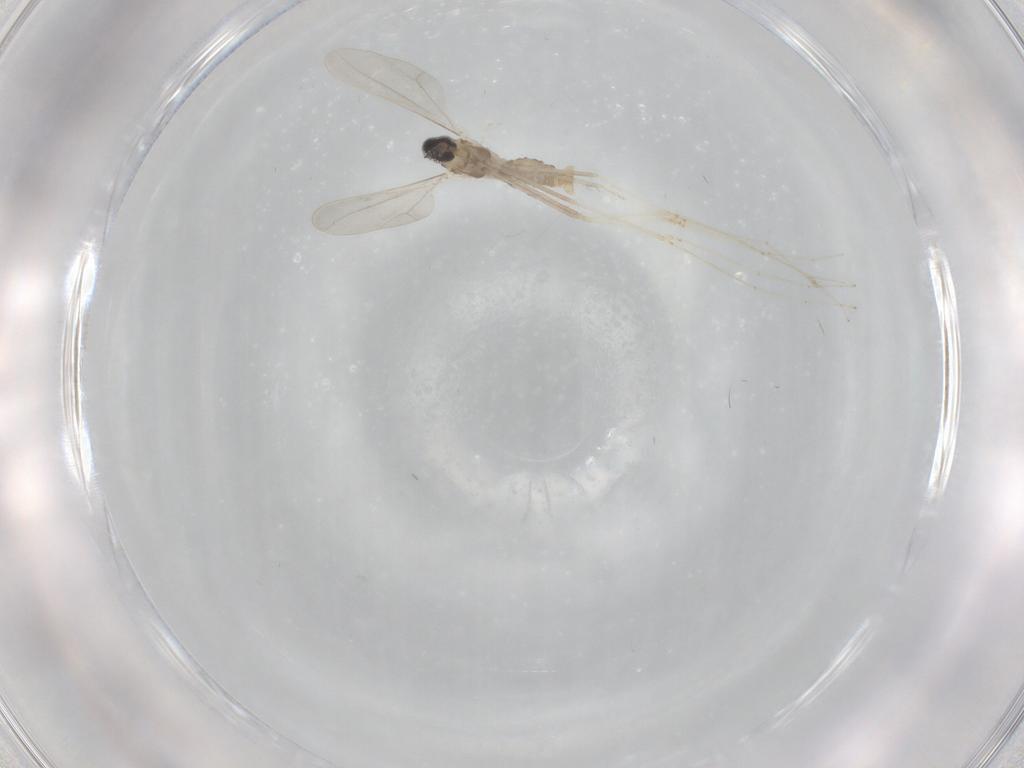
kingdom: Animalia
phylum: Arthropoda
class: Insecta
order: Diptera
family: Cecidomyiidae
